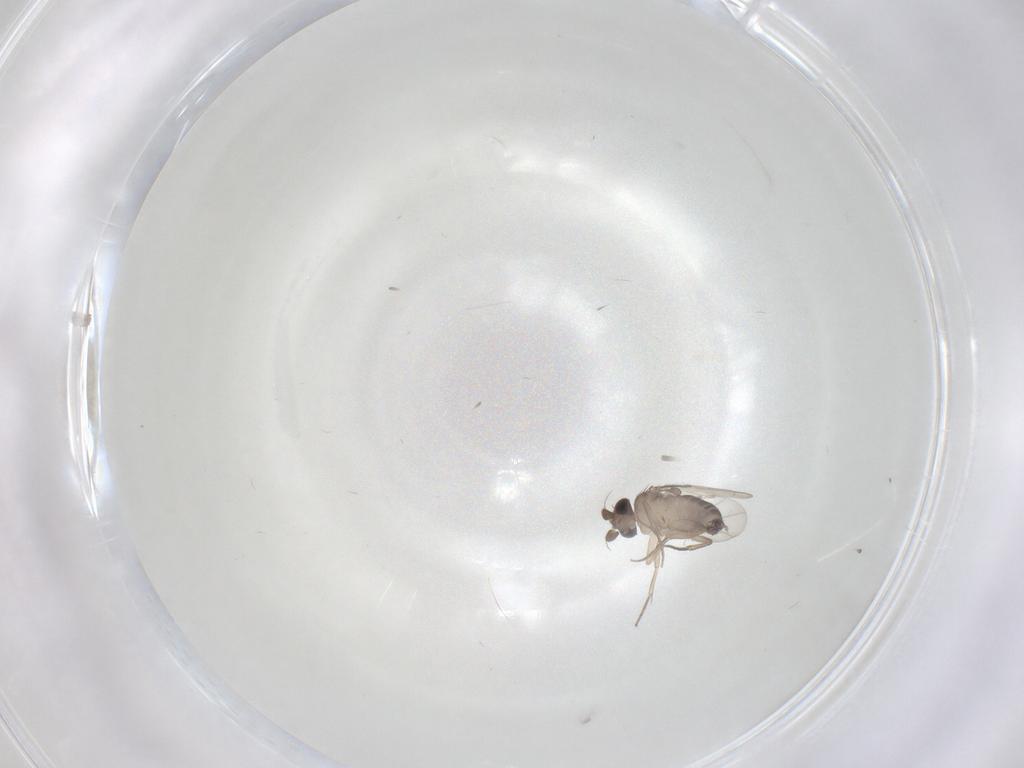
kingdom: Animalia
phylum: Arthropoda
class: Insecta
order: Diptera
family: Phoridae
